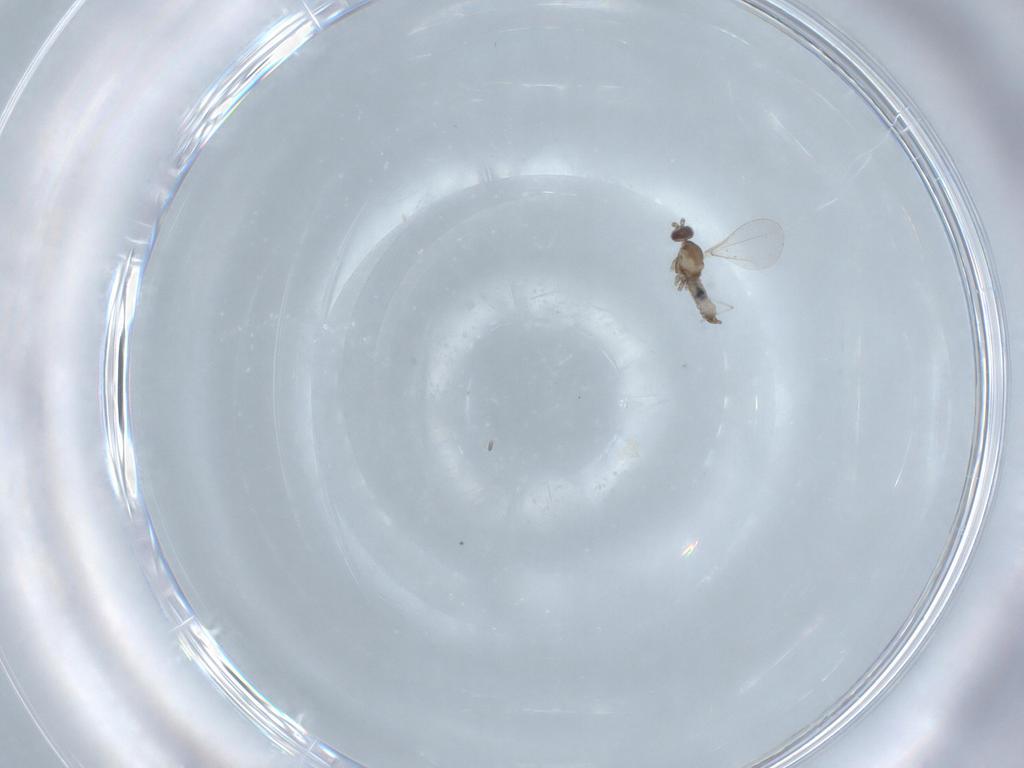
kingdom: Animalia
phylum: Arthropoda
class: Insecta
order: Diptera
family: Cecidomyiidae
